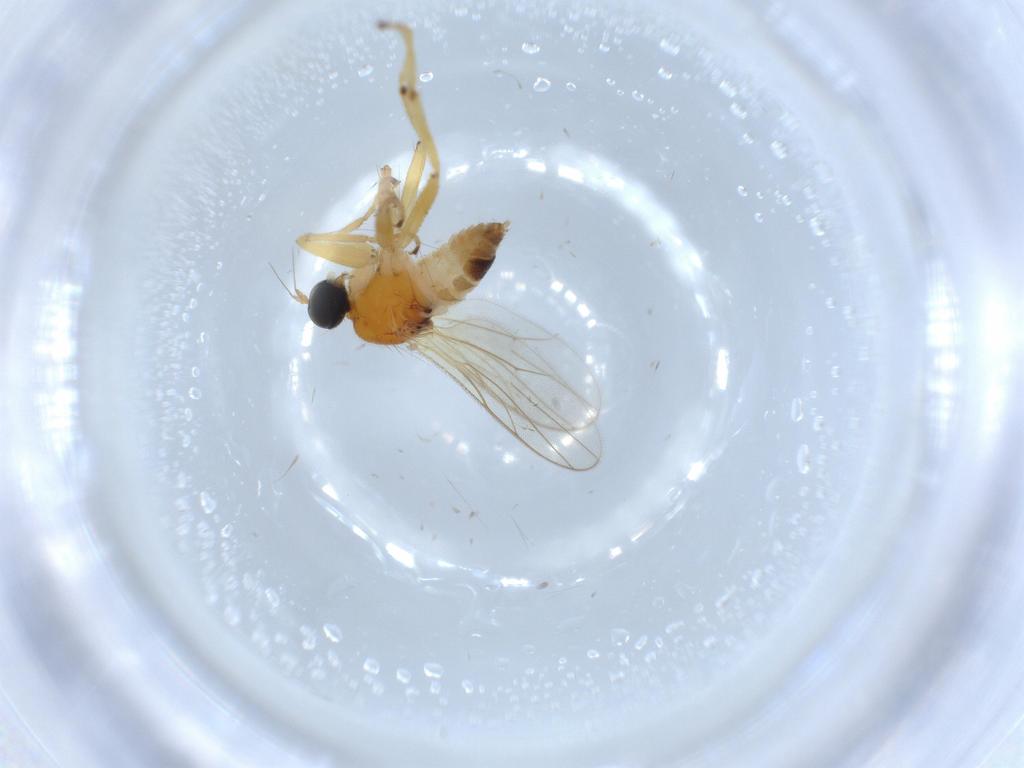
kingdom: Animalia
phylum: Arthropoda
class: Insecta
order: Diptera
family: Hybotidae
